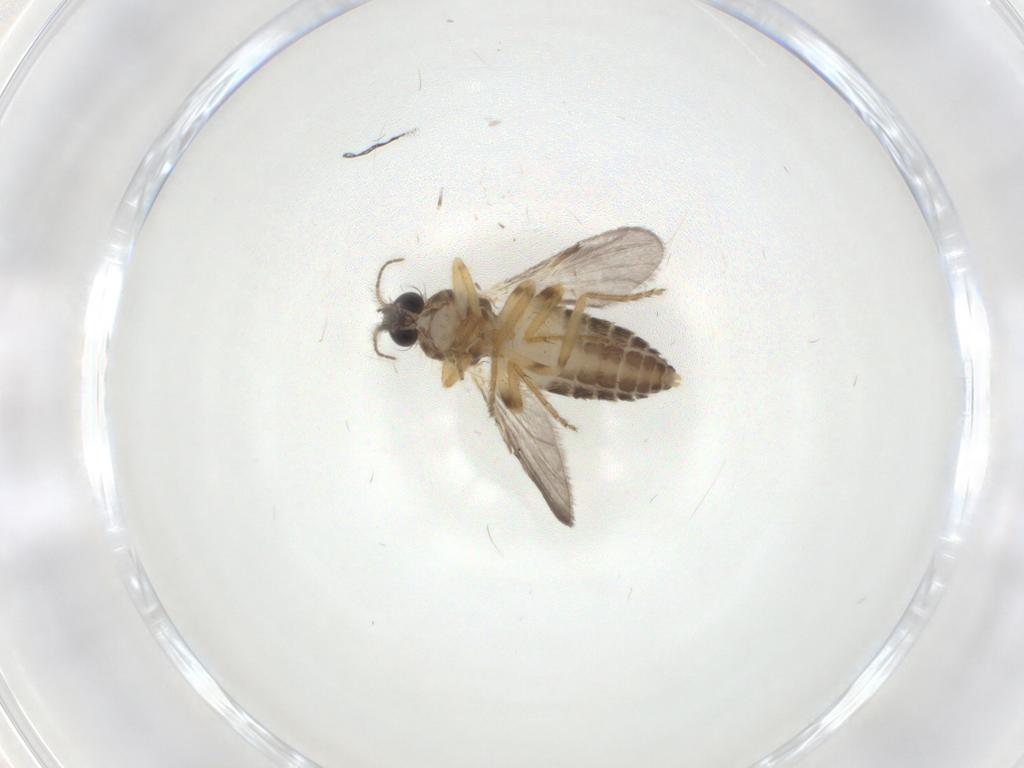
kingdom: Animalia
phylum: Arthropoda
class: Insecta
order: Diptera
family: Ceratopogonidae
